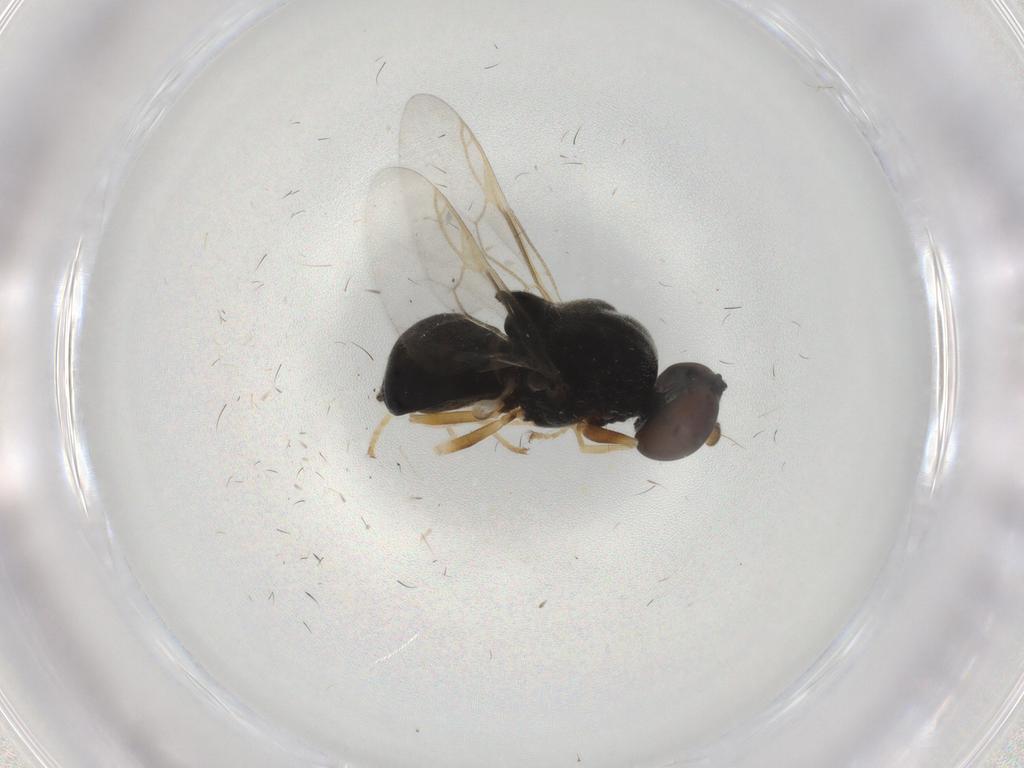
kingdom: Animalia
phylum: Arthropoda
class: Insecta
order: Diptera
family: Stratiomyidae
